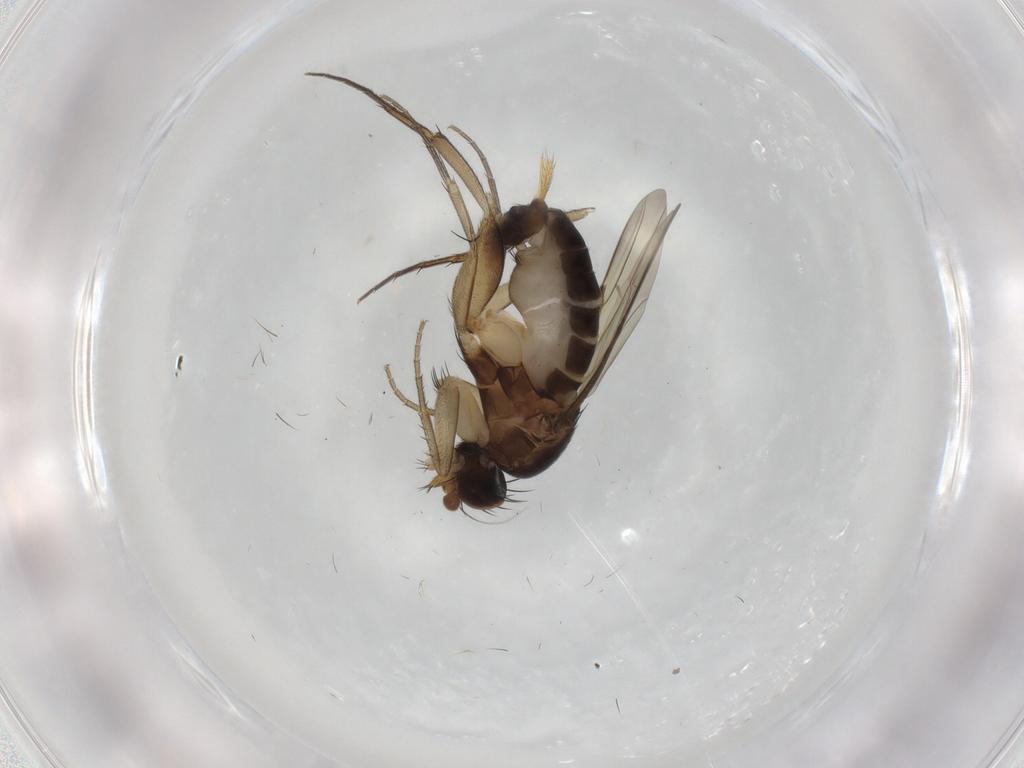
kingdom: Animalia
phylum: Arthropoda
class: Insecta
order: Diptera
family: Phoridae
